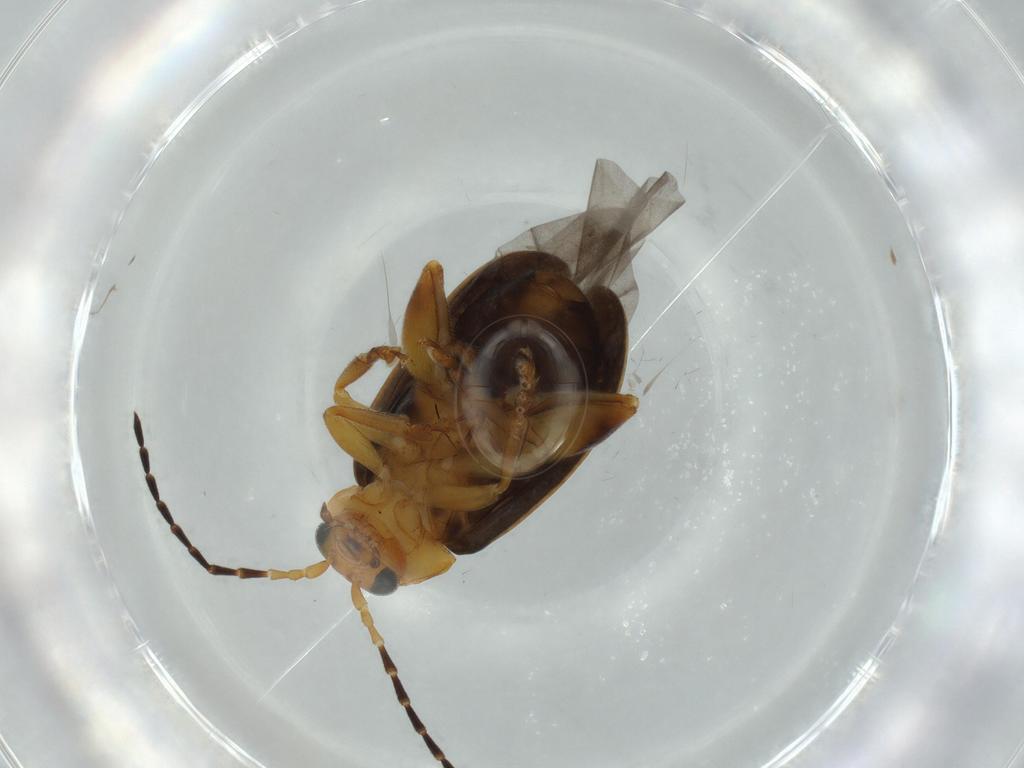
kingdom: Animalia
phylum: Arthropoda
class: Insecta
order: Coleoptera
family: Chrysomelidae
